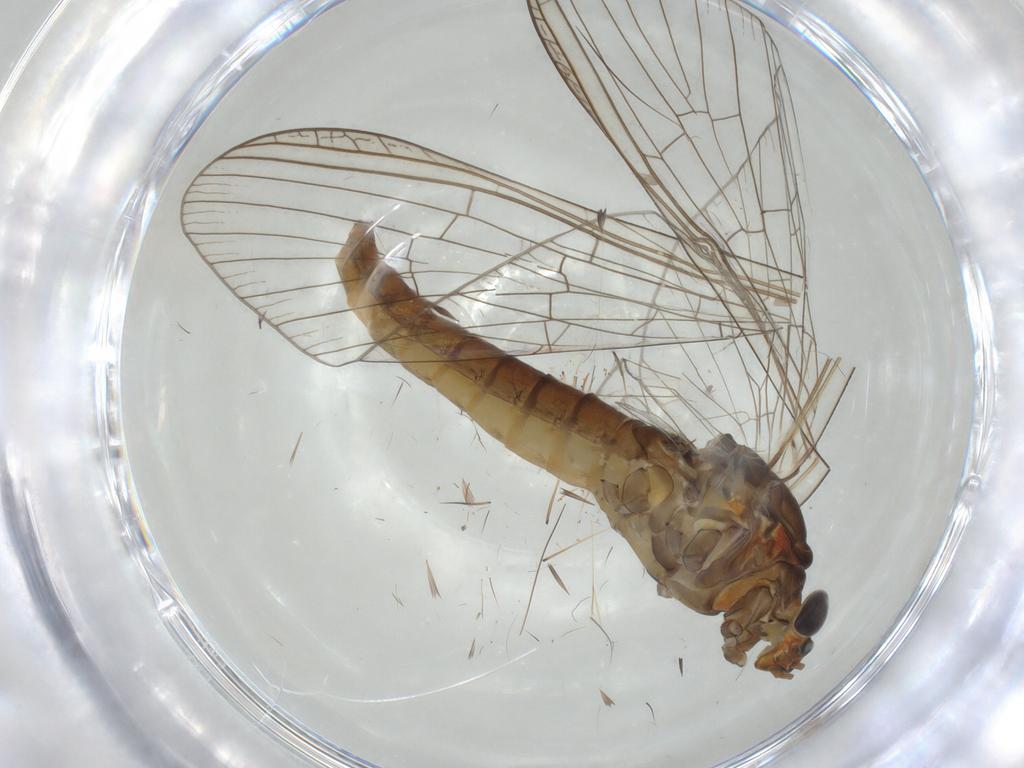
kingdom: Animalia
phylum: Arthropoda
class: Insecta
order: Ephemeroptera
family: Baetidae
